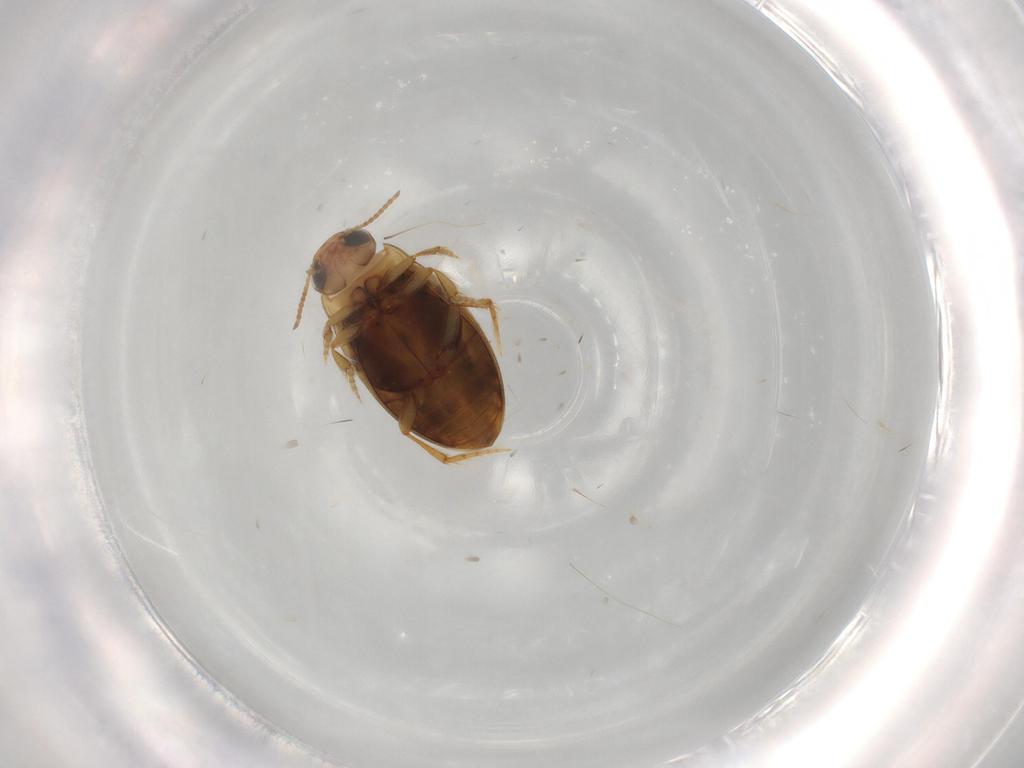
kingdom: Animalia
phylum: Arthropoda
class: Insecta
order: Coleoptera
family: Dytiscidae
